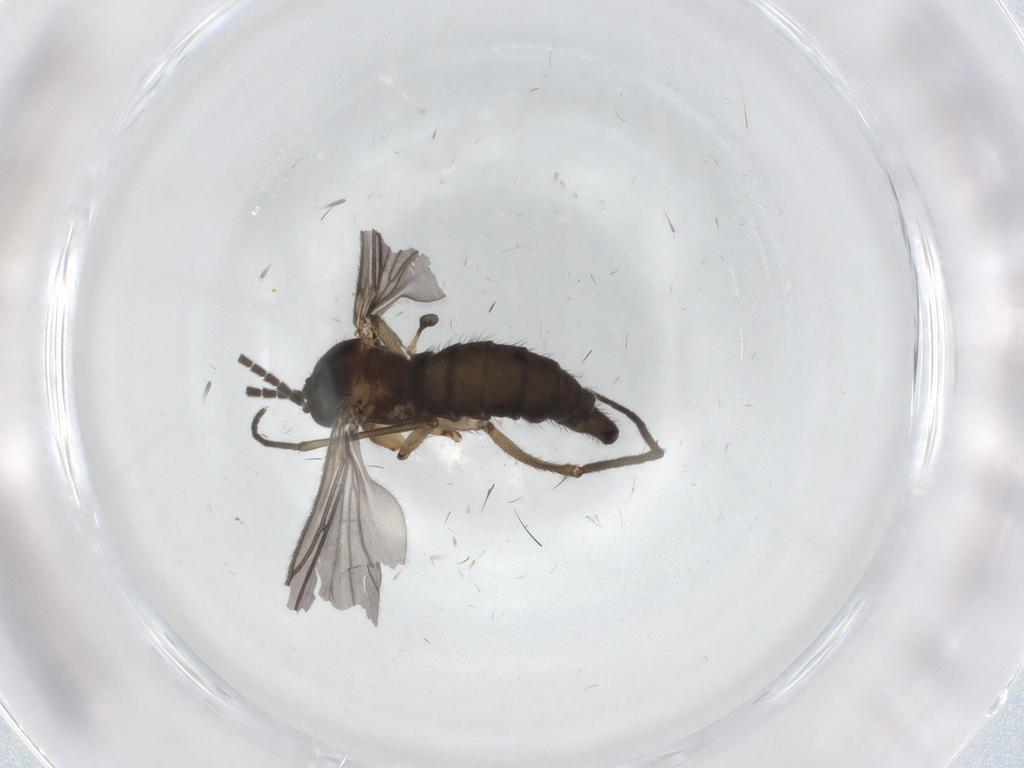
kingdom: Animalia
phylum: Arthropoda
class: Insecta
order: Diptera
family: Sciaridae
